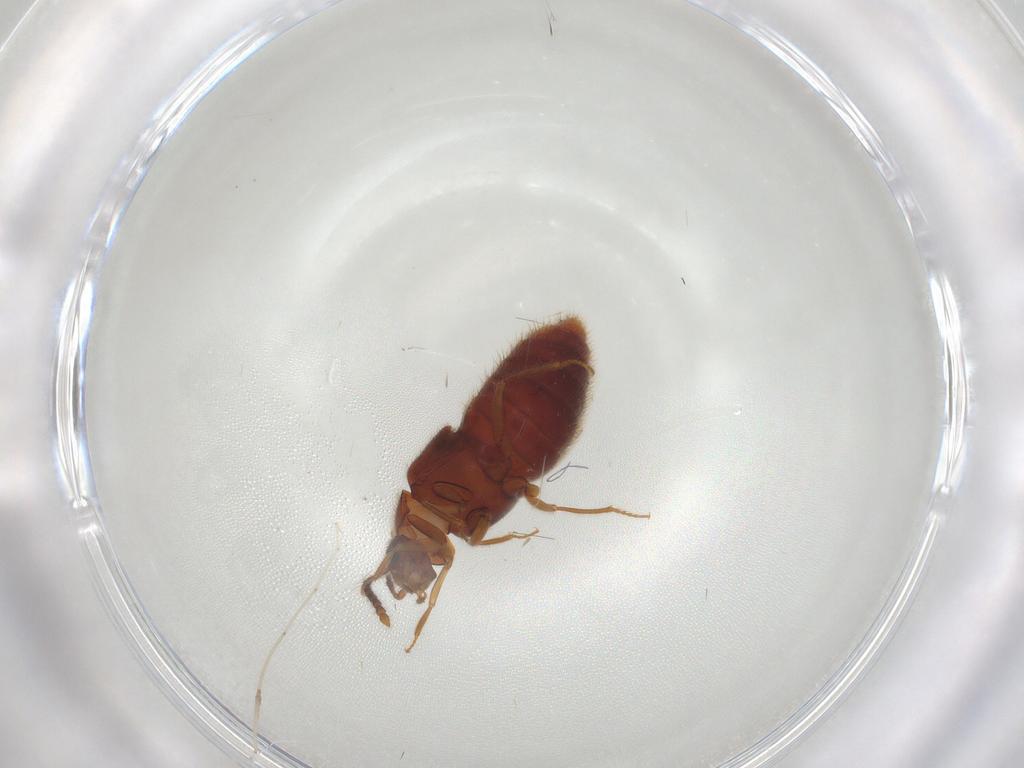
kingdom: Animalia
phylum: Arthropoda
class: Insecta
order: Coleoptera
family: Staphylinidae
